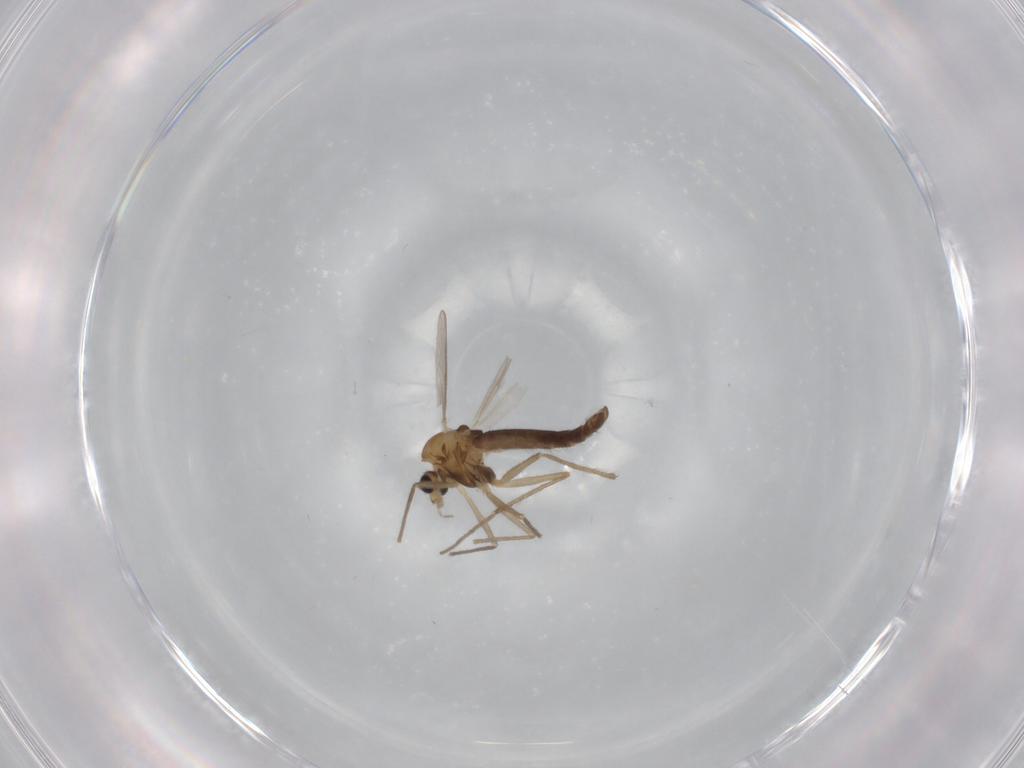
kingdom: Animalia
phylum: Arthropoda
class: Insecta
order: Diptera
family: Chironomidae
